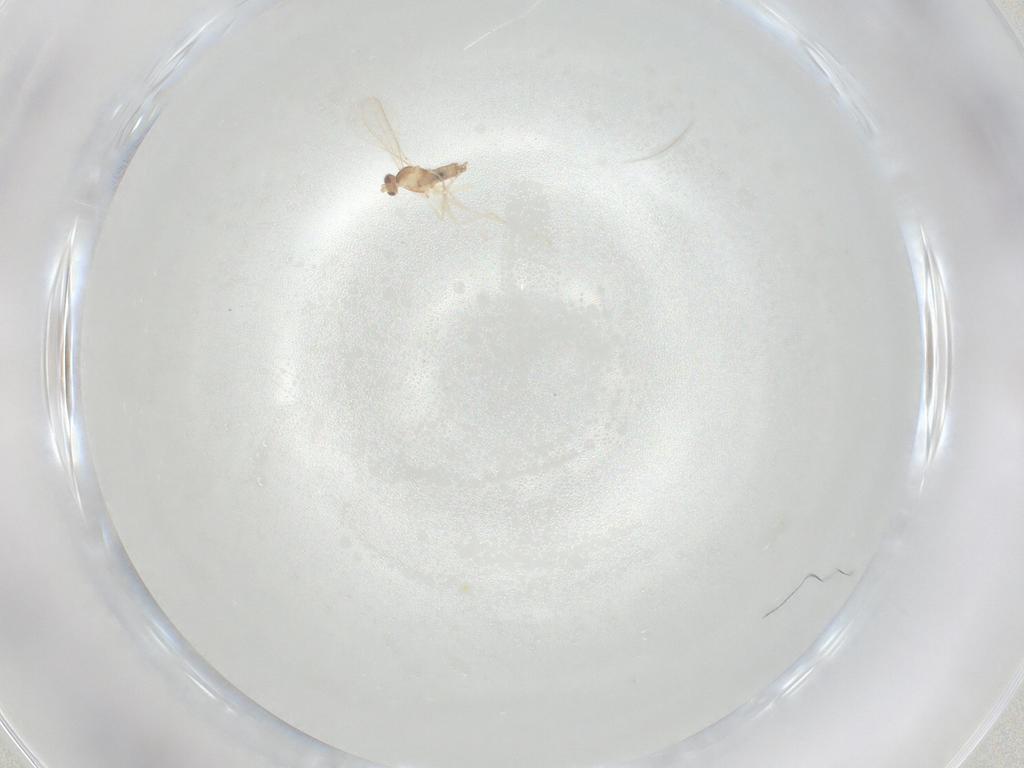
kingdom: Animalia
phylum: Arthropoda
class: Insecta
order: Diptera
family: Cecidomyiidae
